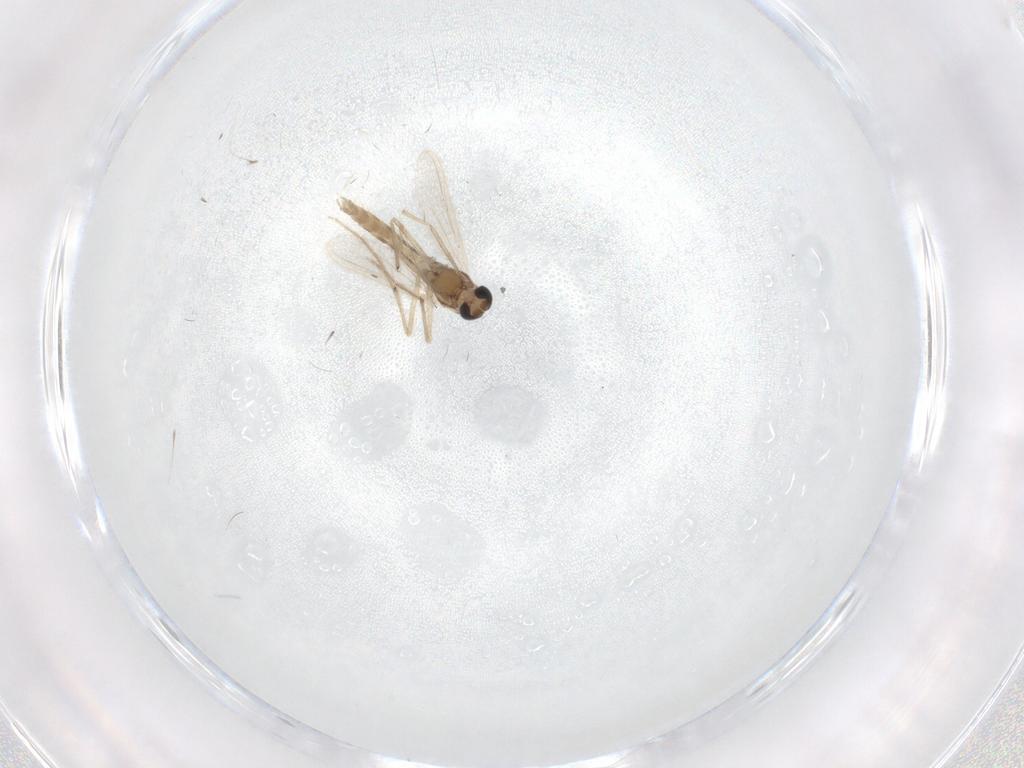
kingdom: Animalia
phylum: Arthropoda
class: Insecta
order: Diptera
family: Chironomidae
